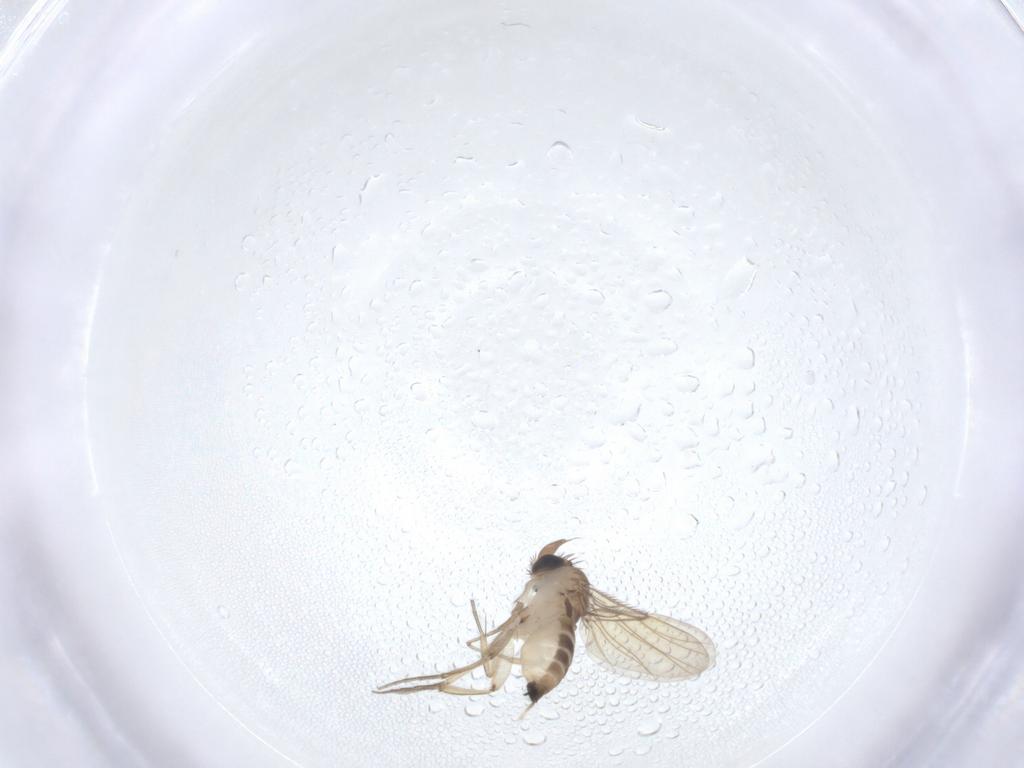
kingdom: Animalia
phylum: Arthropoda
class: Insecta
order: Diptera
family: Phoridae
